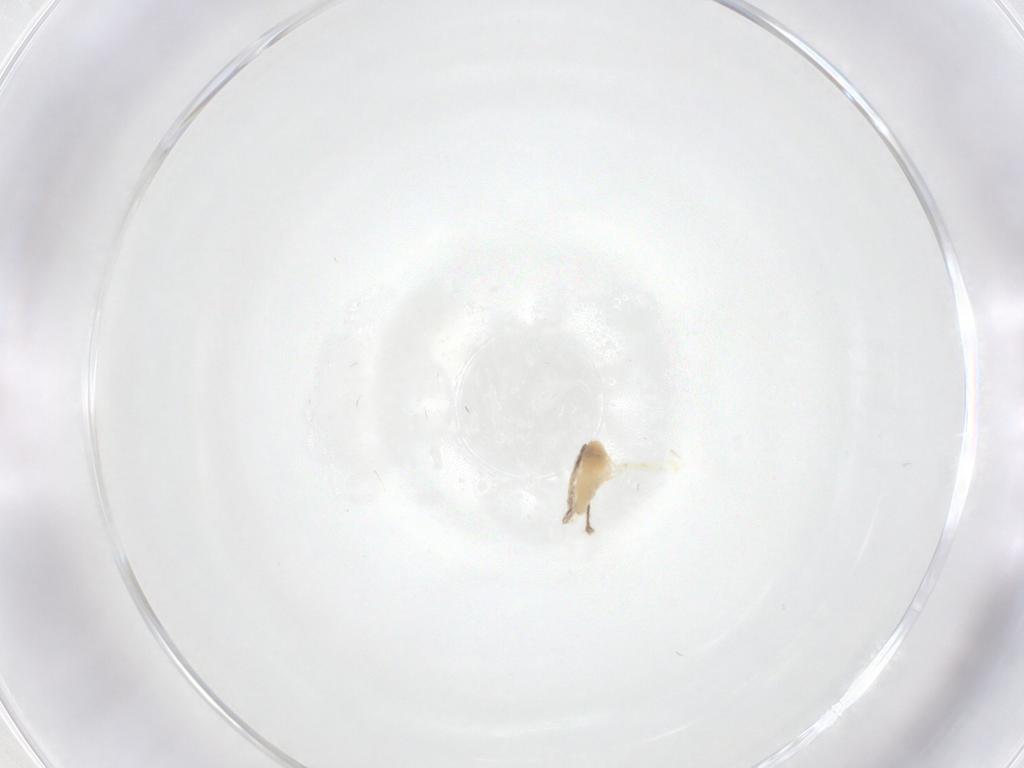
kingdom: Animalia
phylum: Arthropoda
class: Insecta
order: Diptera
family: Chironomidae
